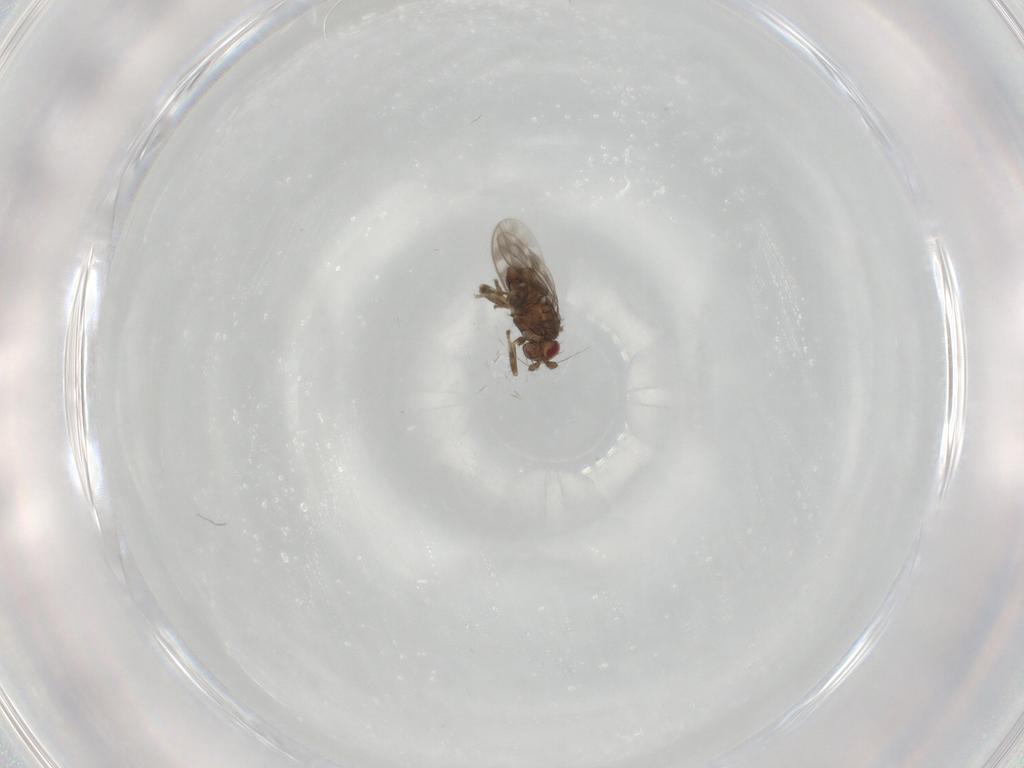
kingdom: Animalia
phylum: Arthropoda
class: Insecta
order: Diptera
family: Sphaeroceridae
